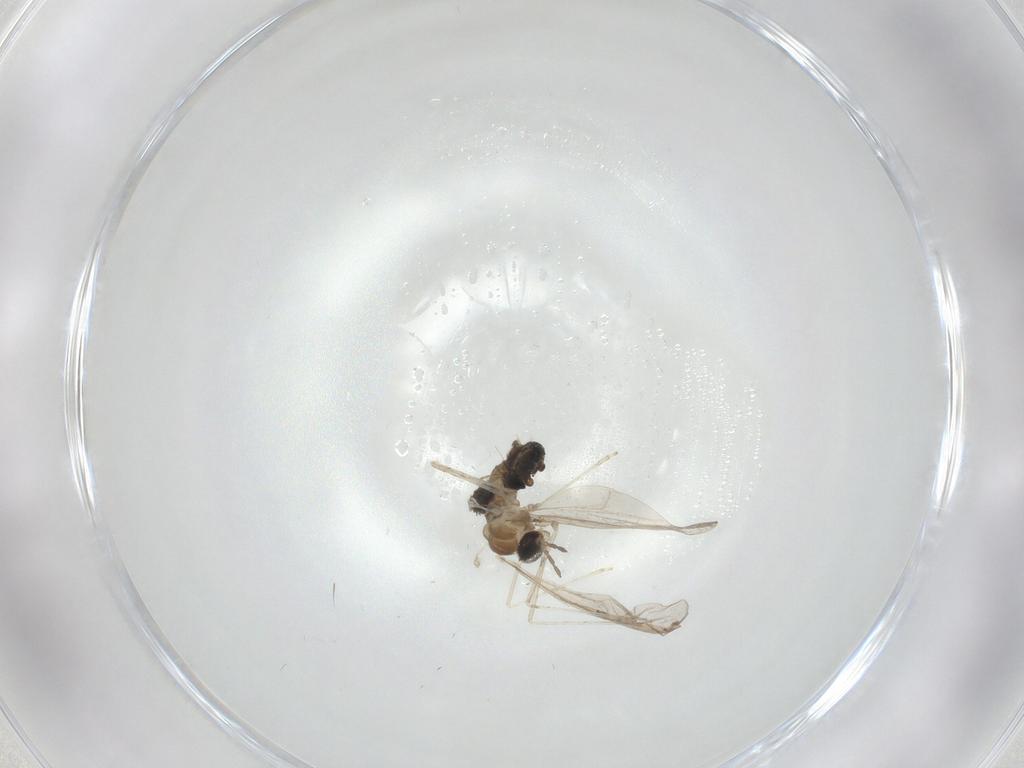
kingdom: Animalia
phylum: Arthropoda
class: Insecta
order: Diptera
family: Cecidomyiidae
